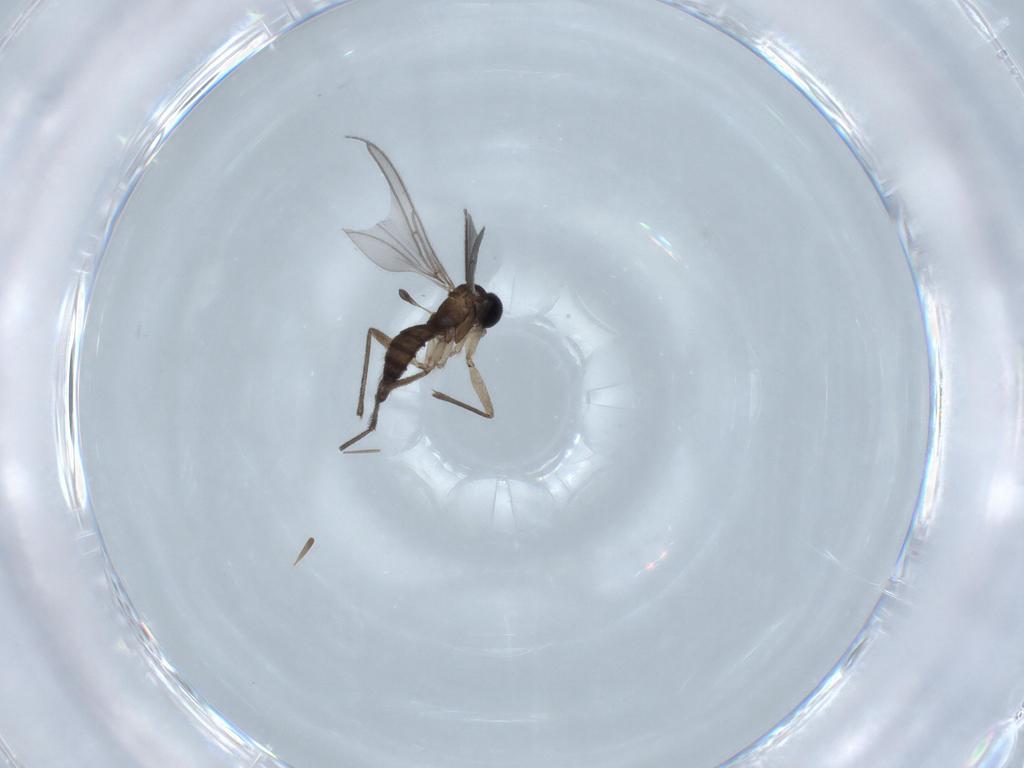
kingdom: Animalia
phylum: Arthropoda
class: Insecta
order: Diptera
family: Sciaridae
